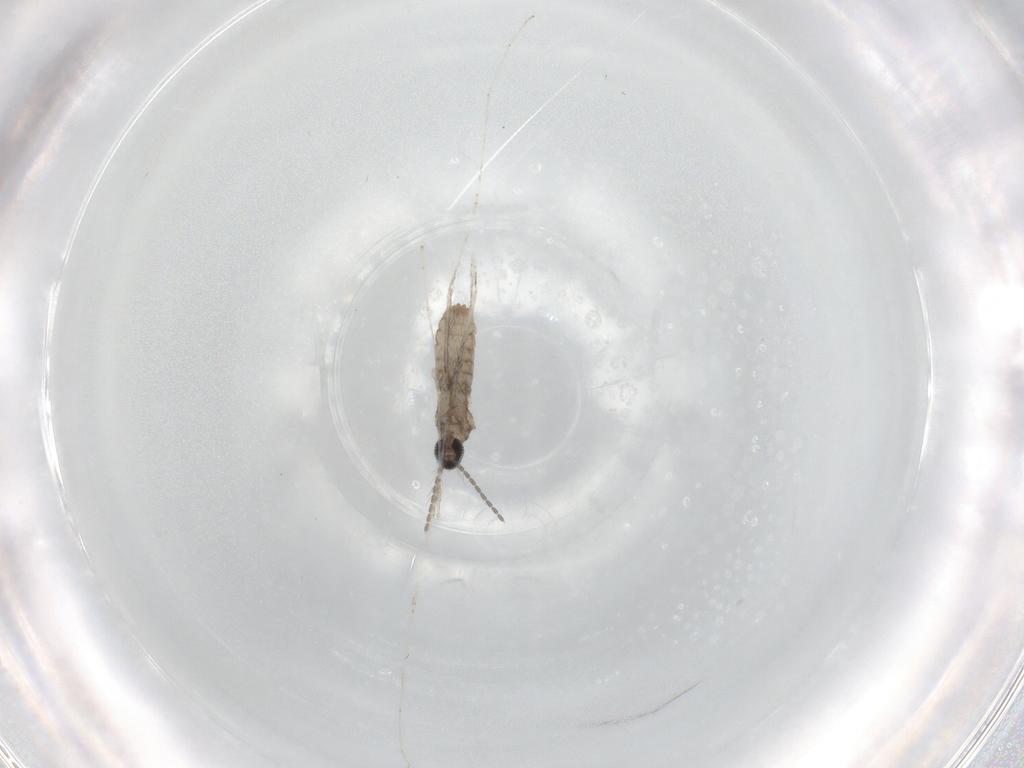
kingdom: Animalia
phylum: Arthropoda
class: Insecta
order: Diptera
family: Cecidomyiidae
